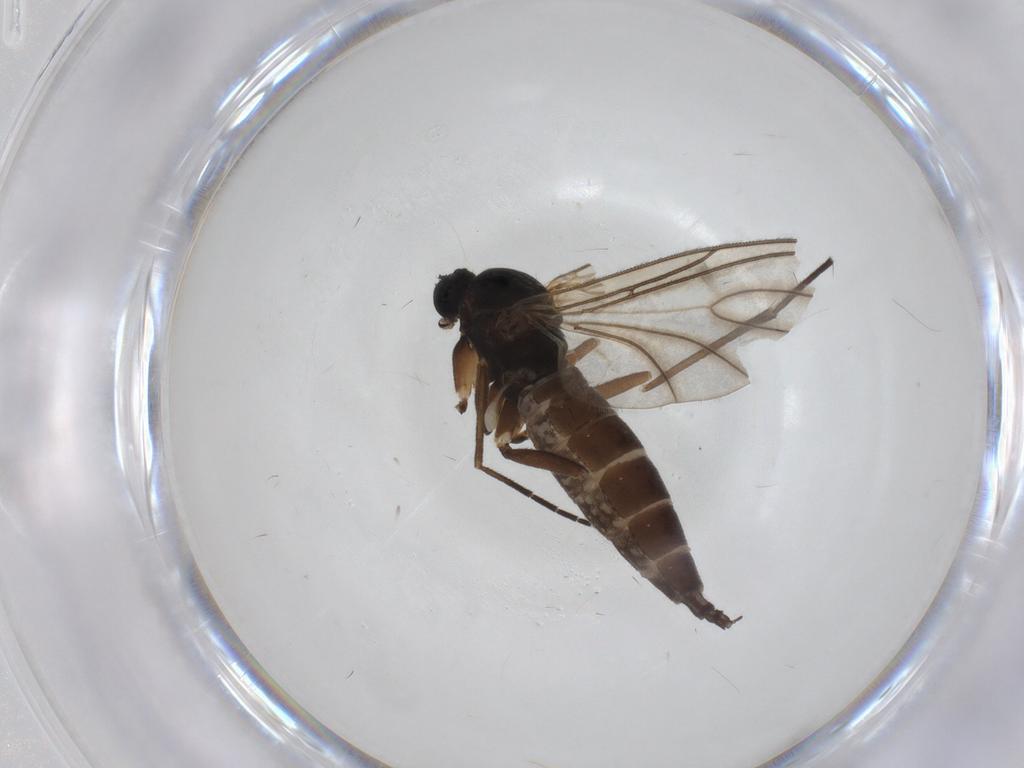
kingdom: Animalia
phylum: Arthropoda
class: Insecta
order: Diptera
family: Sciaridae
